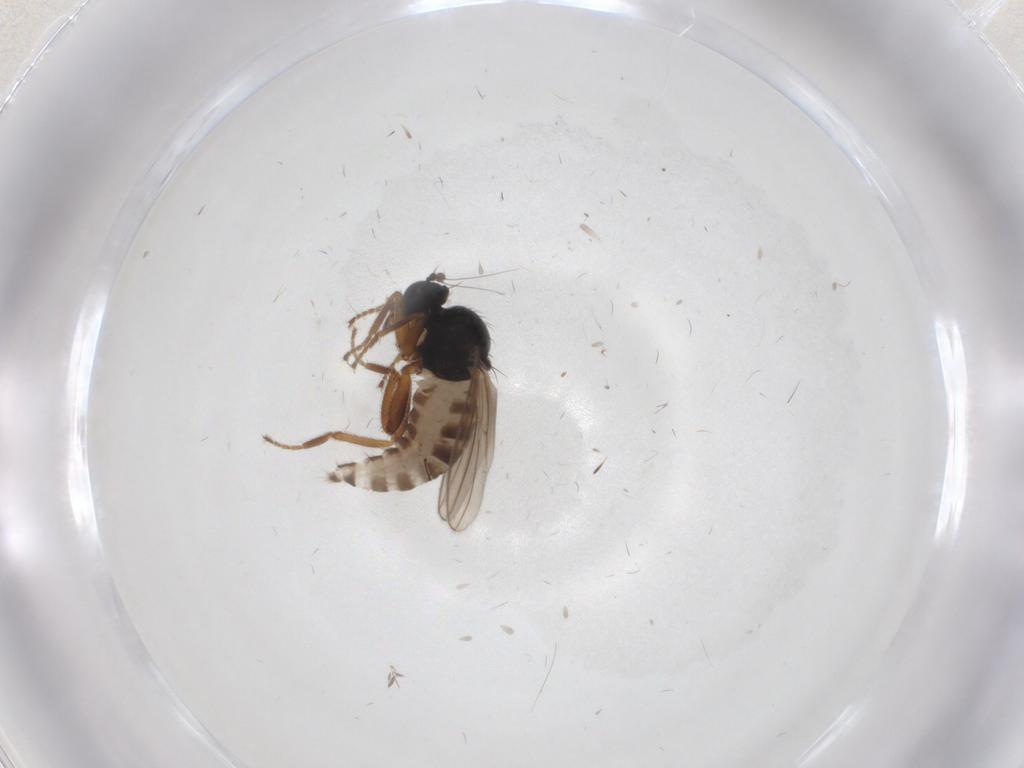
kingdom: Animalia
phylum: Arthropoda
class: Insecta
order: Diptera
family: Hybotidae
